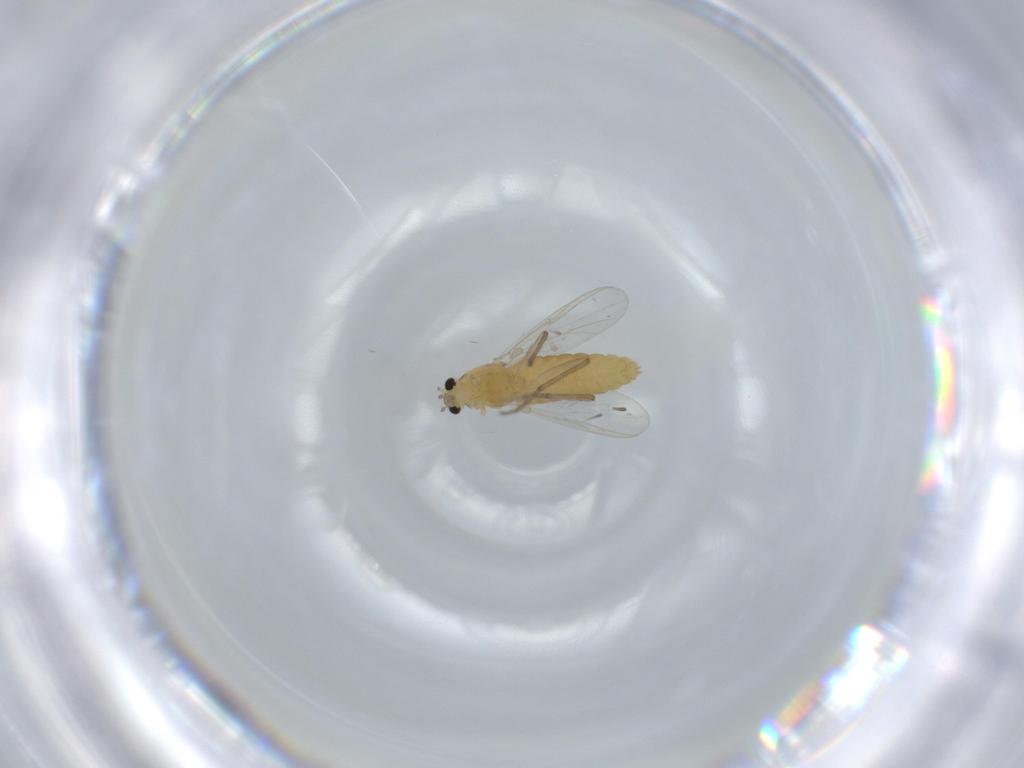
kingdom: Animalia
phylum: Arthropoda
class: Insecta
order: Diptera
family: Chironomidae
